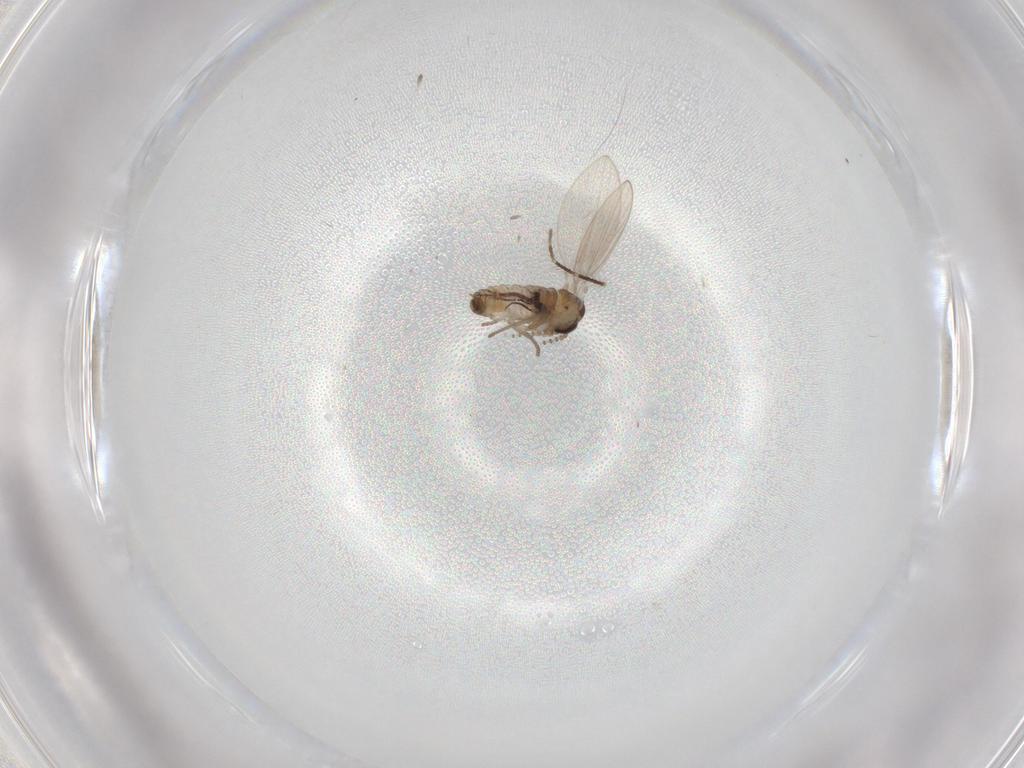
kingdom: Animalia
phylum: Arthropoda
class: Insecta
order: Diptera
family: Psychodidae
